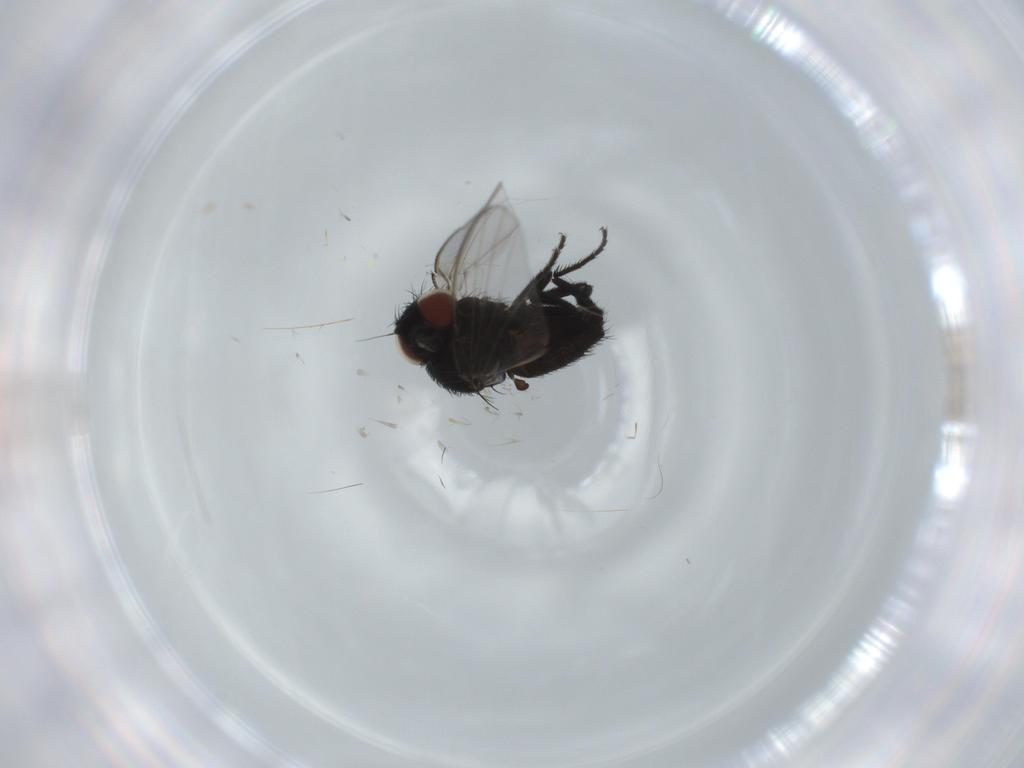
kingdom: Animalia
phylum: Arthropoda
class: Insecta
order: Diptera
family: Milichiidae
